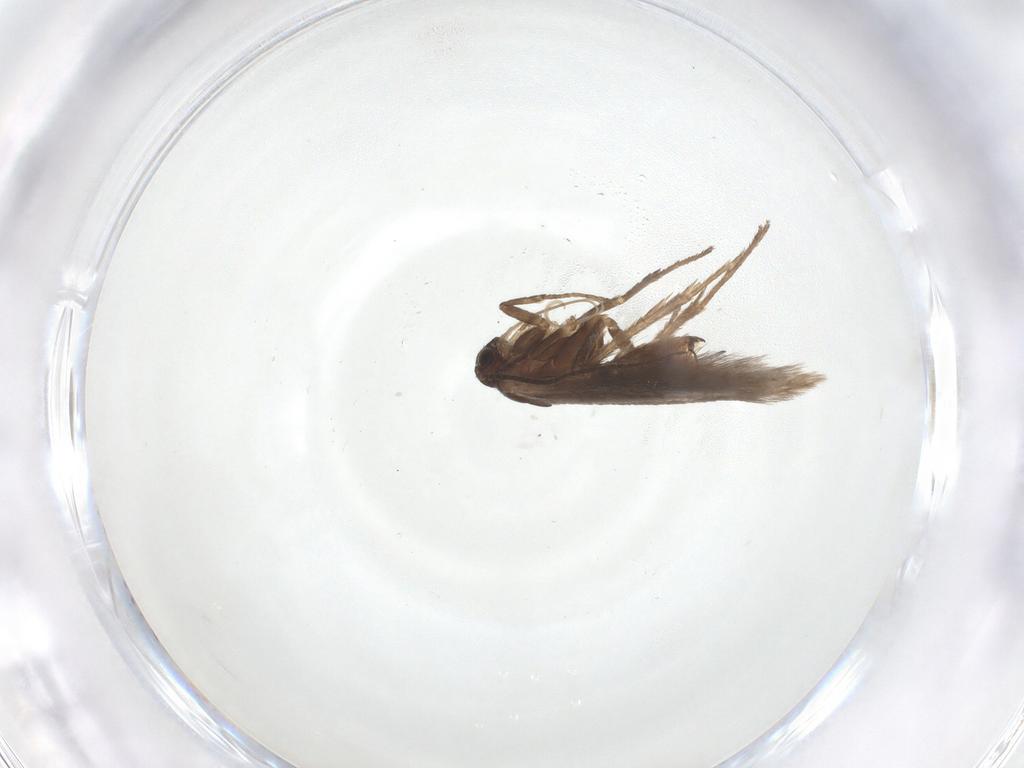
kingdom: Animalia
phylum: Arthropoda
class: Insecta
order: Lepidoptera
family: Scythrididae
